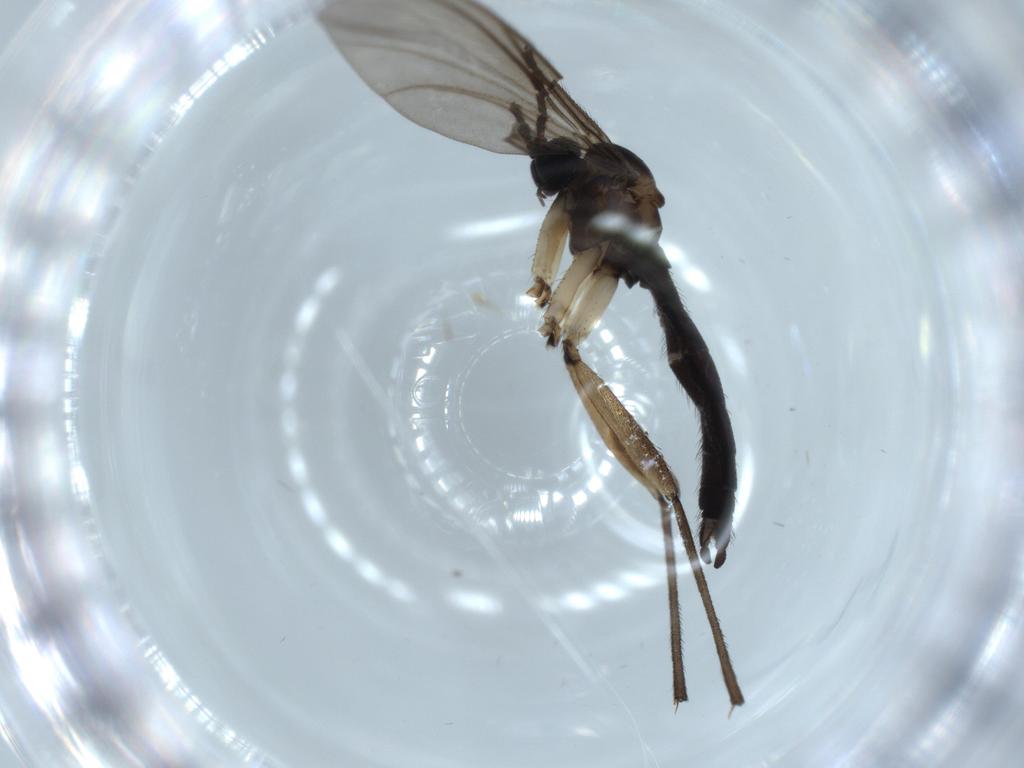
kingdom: Animalia
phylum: Arthropoda
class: Insecta
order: Diptera
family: Sciaridae
